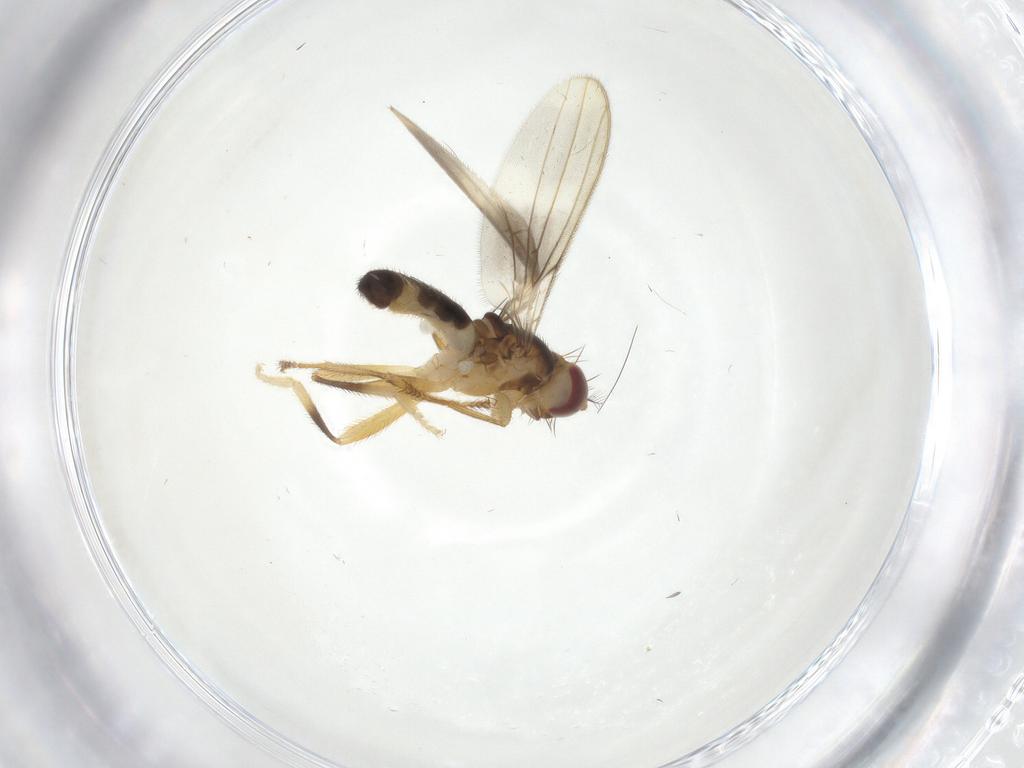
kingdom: Animalia
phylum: Arthropoda
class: Insecta
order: Diptera
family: Periscelididae
